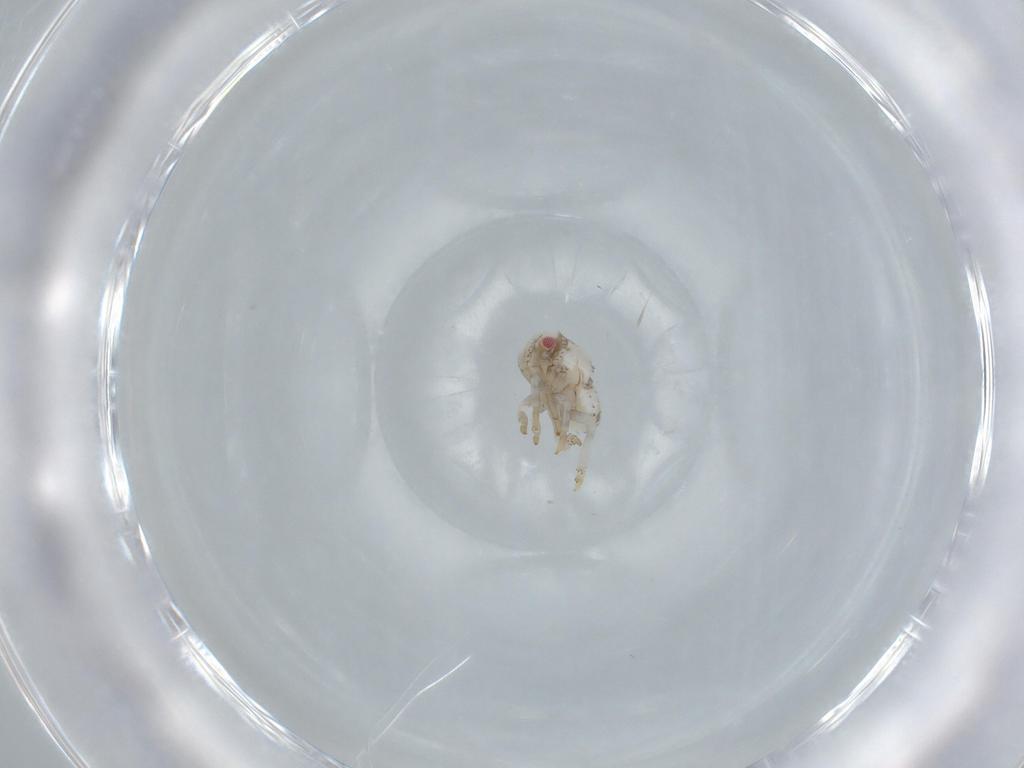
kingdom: Animalia
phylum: Arthropoda
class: Insecta
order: Hemiptera
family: Acanaloniidae
